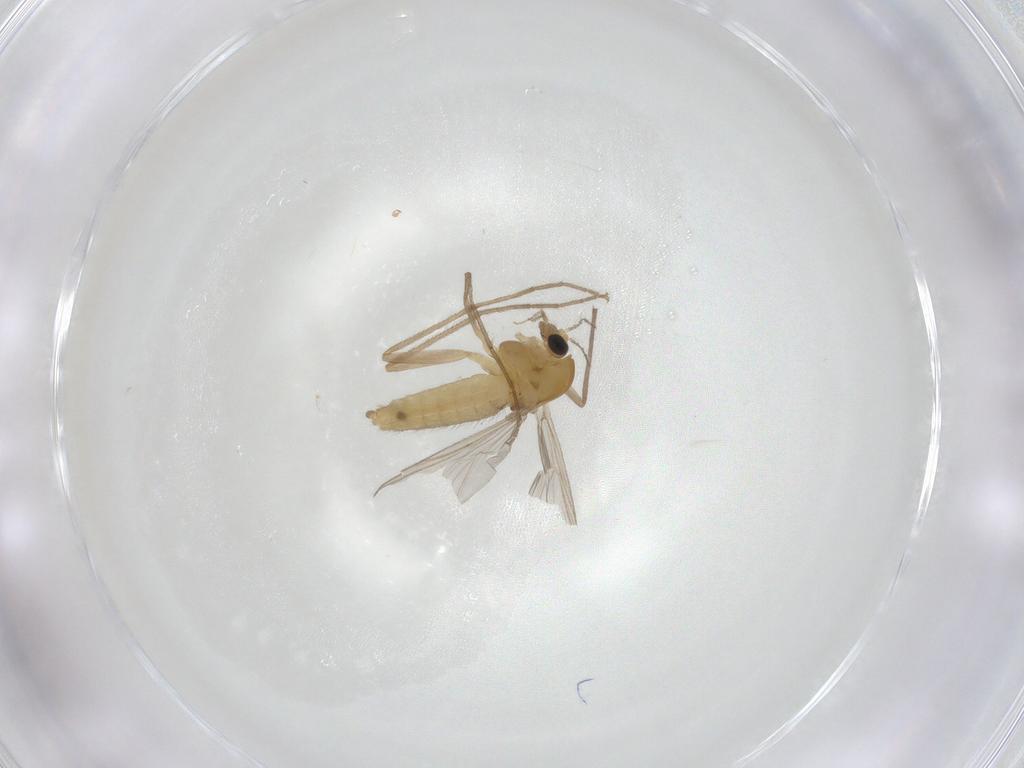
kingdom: Animalia
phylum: Arthropoda
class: Insecta
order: Diptera
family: Chironomidae
